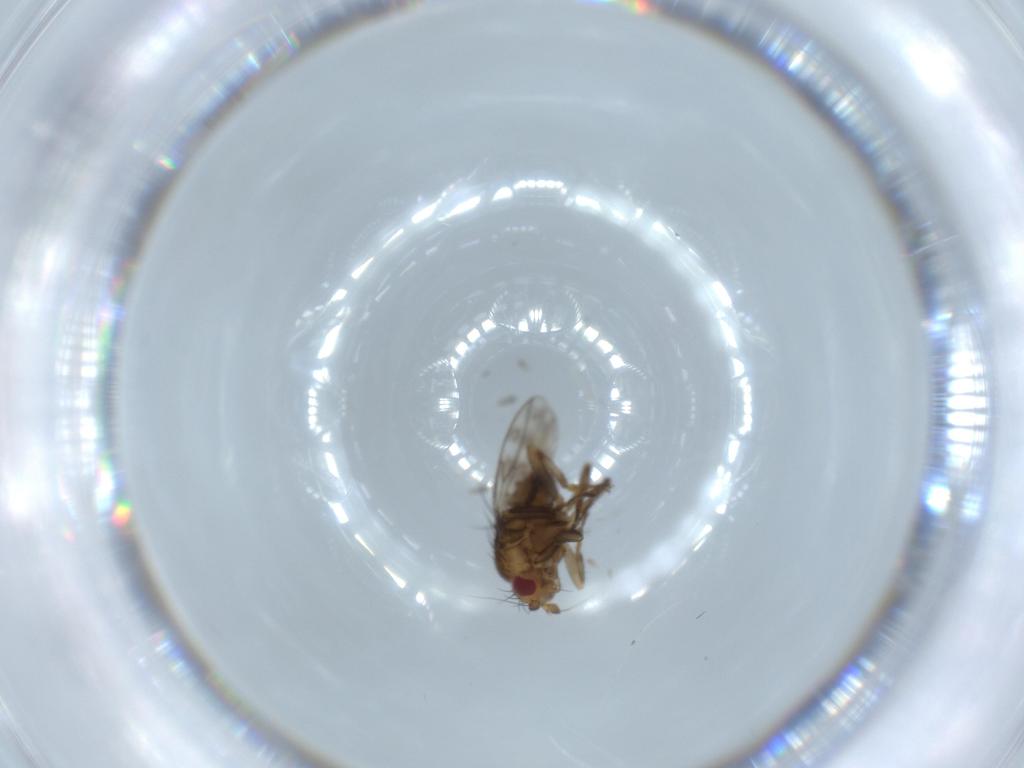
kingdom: Animalia
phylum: Arthropoda
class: Insecta
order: Diptera
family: Sphaeroceridae
